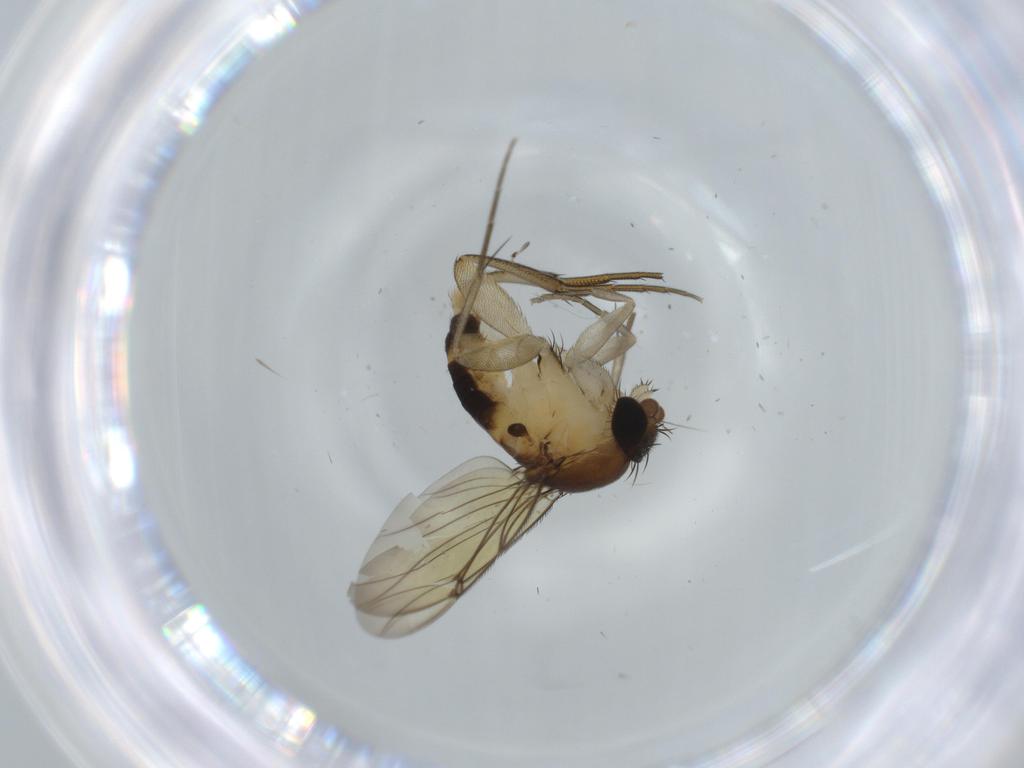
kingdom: Animalia
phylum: Arthropoda
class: Insecta
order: Diptera
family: Cecidomyiidae
